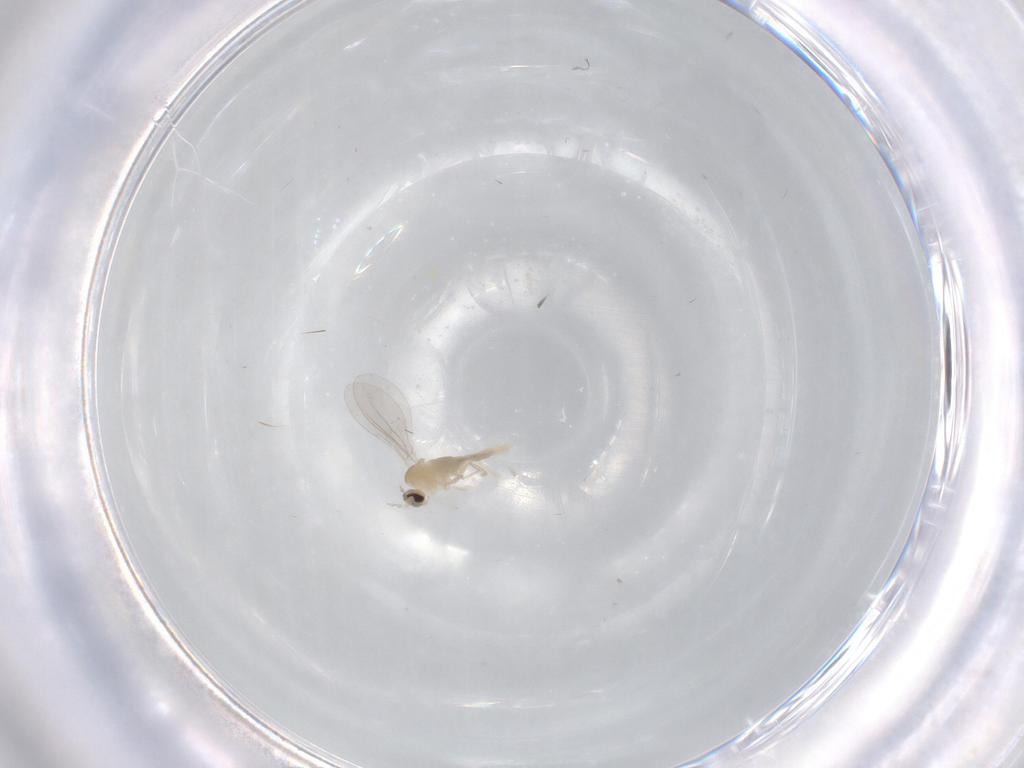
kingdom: Animalia
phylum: Arthropoda
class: Insecta
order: Diptera
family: Cecidomyiidae
